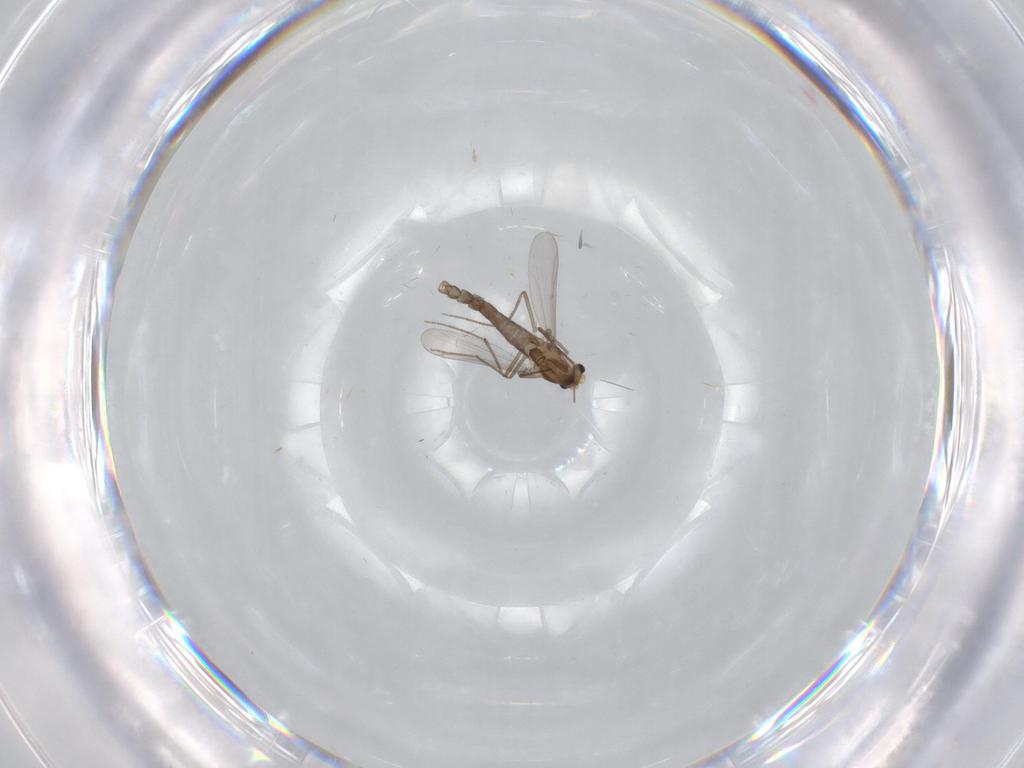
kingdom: Animalia
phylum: Arthropoda
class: Insecta
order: Diptera
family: Chironomidae
